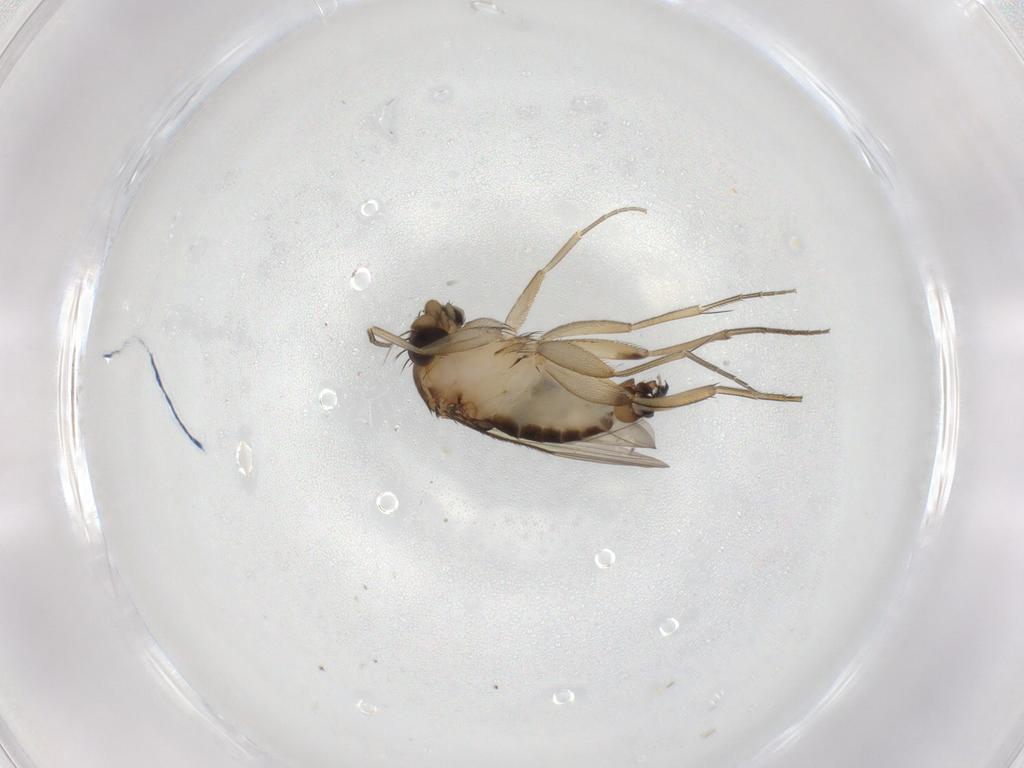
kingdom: Animalia
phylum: Arthropoda
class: Insecta
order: Diptera
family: Phoridae
